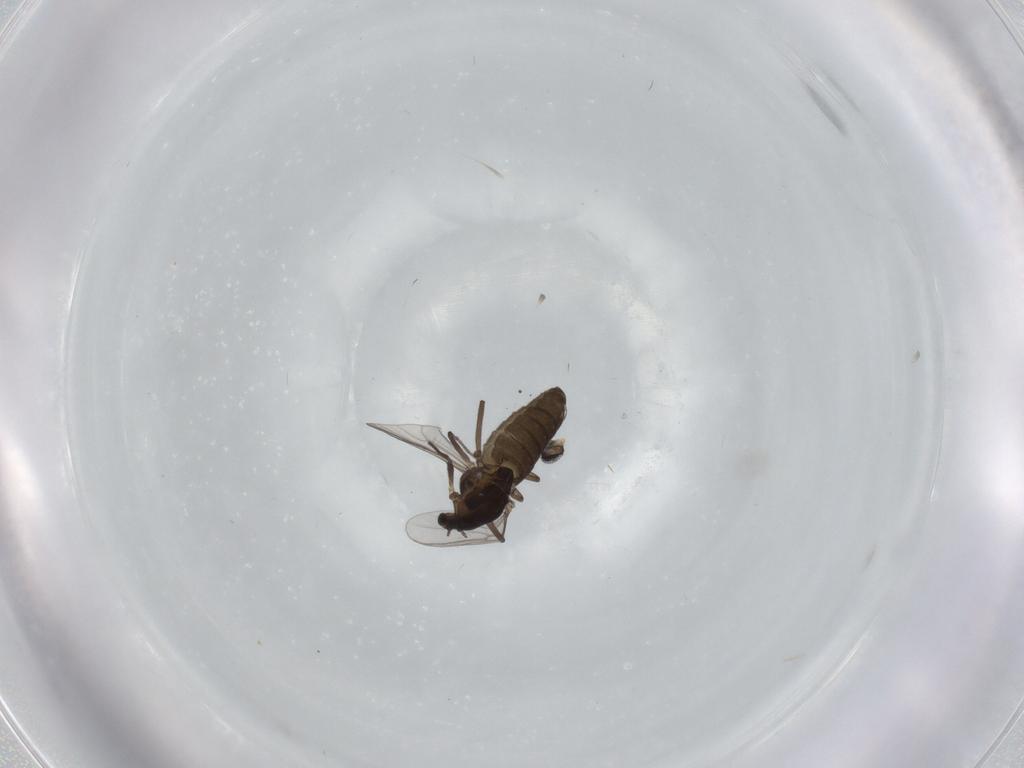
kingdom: Animalia
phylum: Arthropoda
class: Insecta
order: Diptera
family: Chironomidae
